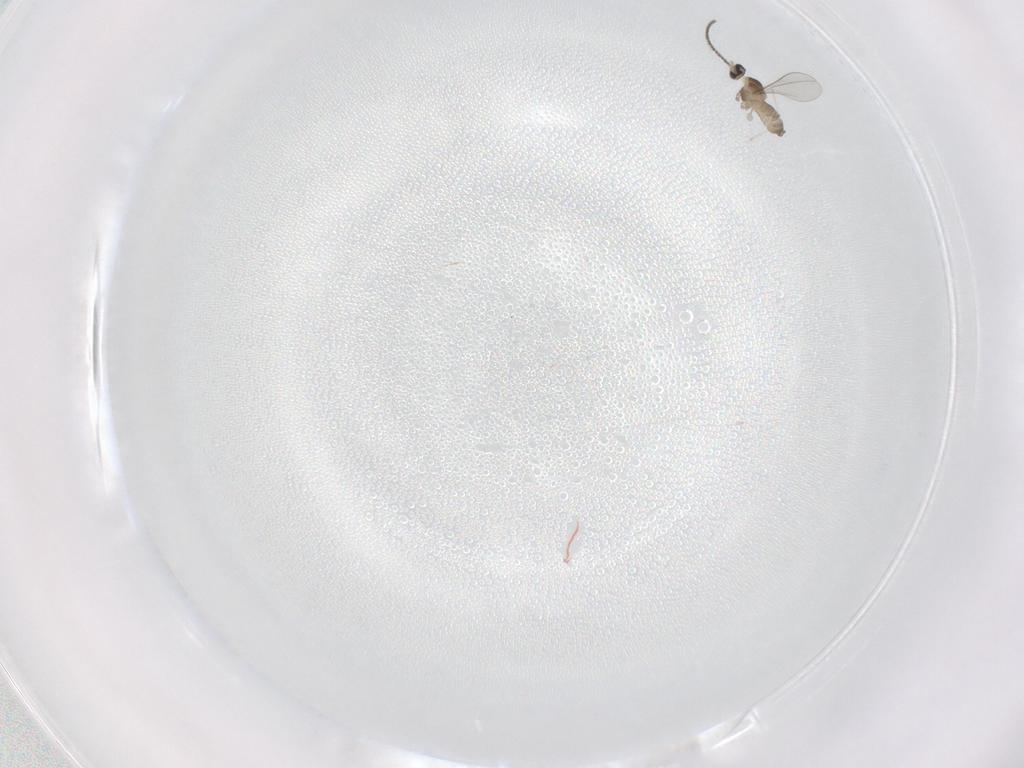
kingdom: Animalia
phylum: Arthropoda
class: Insecta
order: Diptera
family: Cecidomyiidae
